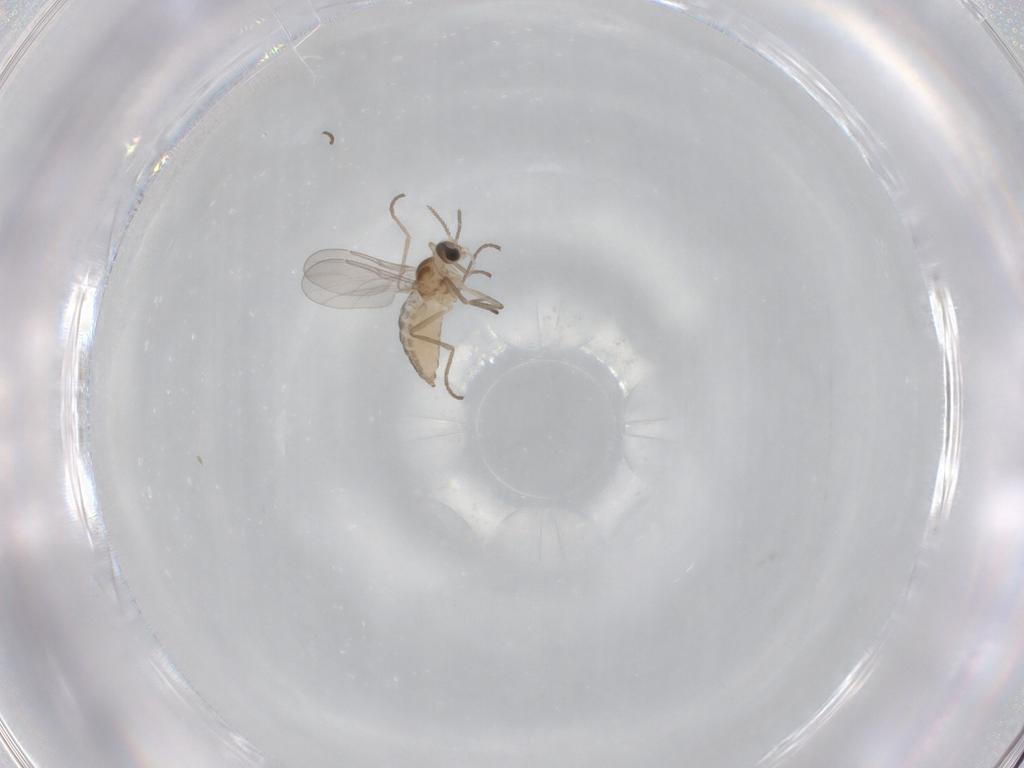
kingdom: Animalia
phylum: Arthropoda
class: Insecta
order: Diptera
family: Cecidomyiidae
